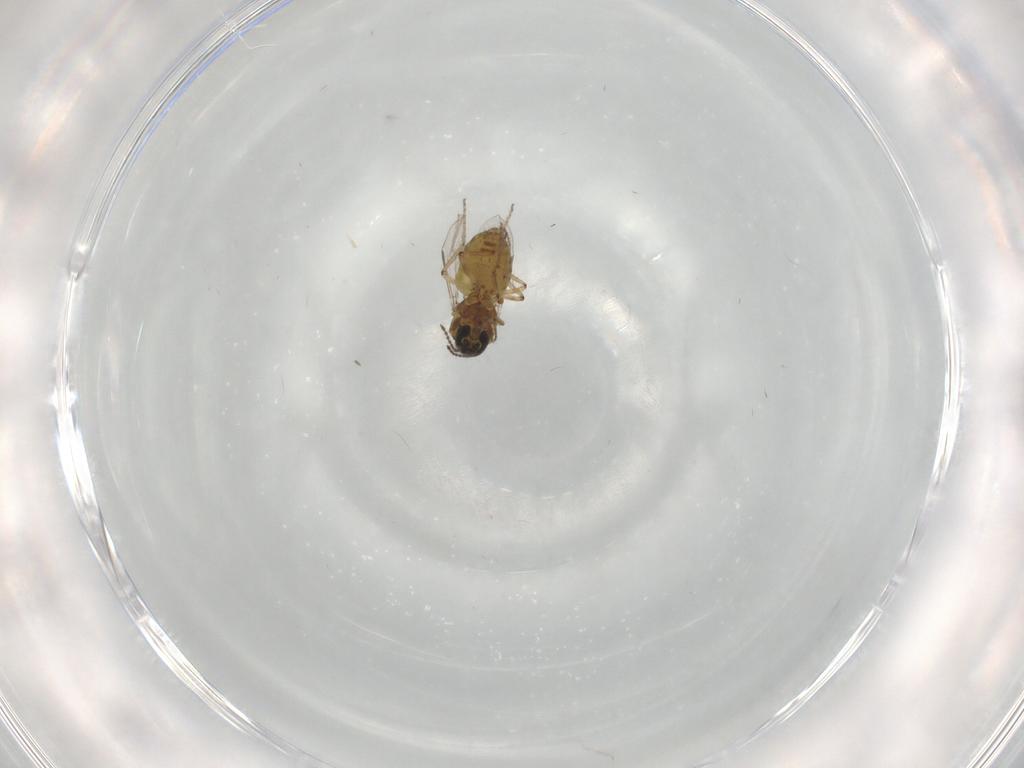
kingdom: Animalia
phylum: Arthropoda
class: Insecta
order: Diptera
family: Ceratopogonidae
